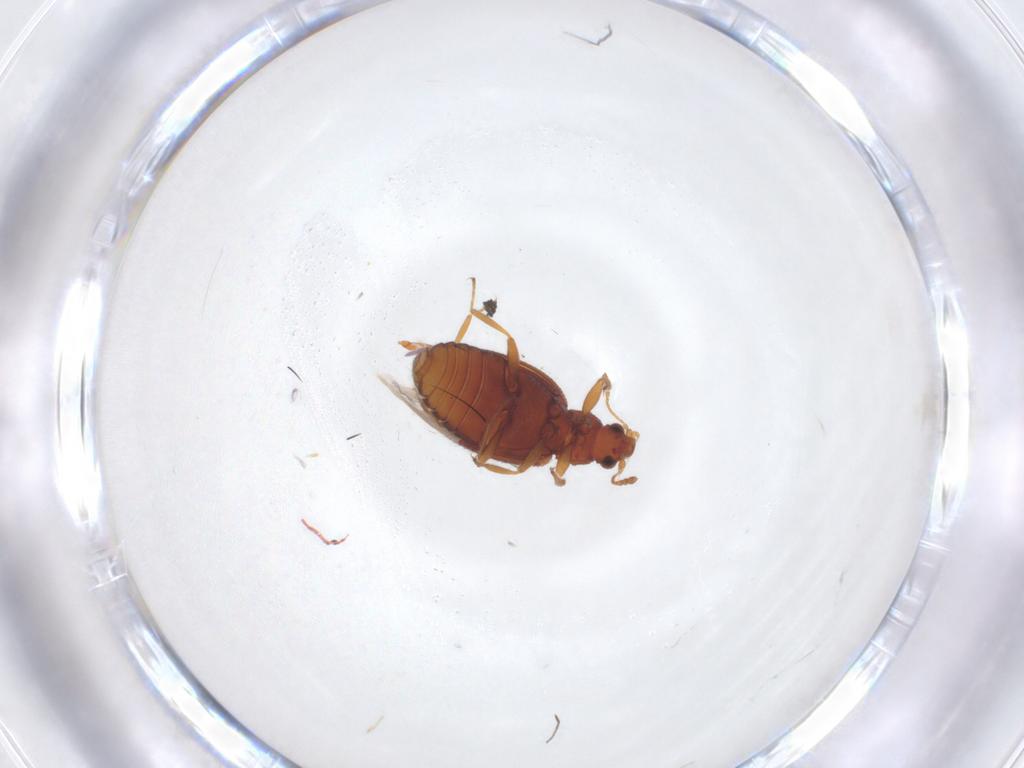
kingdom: Animalia
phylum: Arthropoda
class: Insecta
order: Coleoptera
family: Latridiidae
